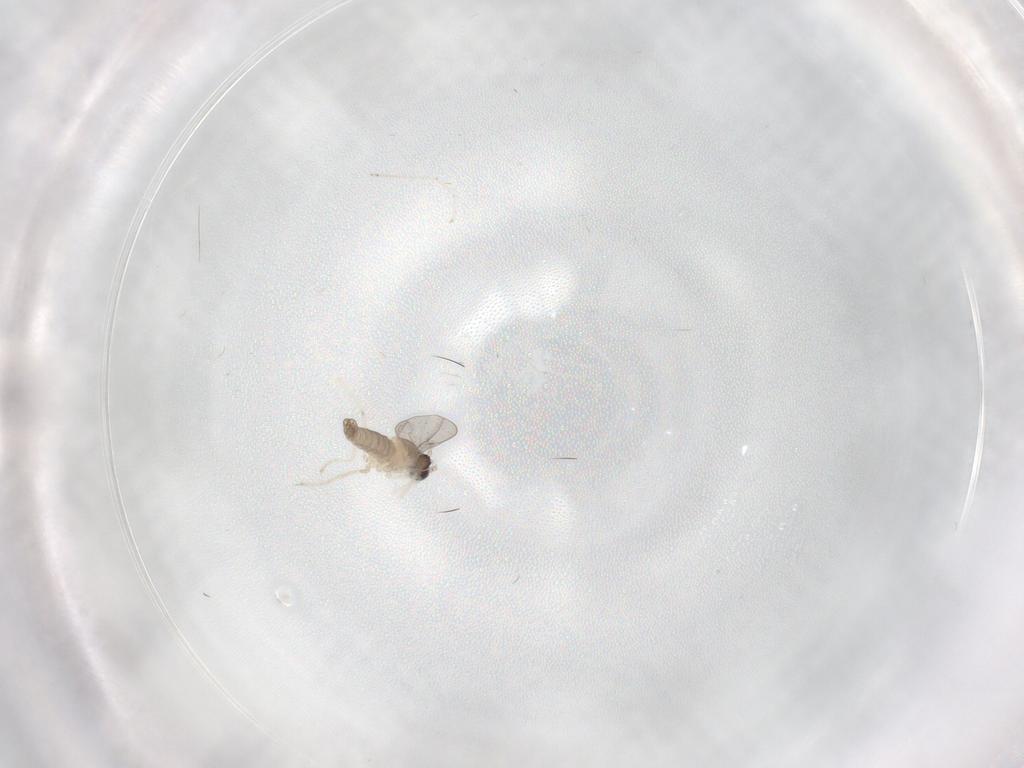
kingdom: Animalia
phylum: Arthropoda
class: Insecta
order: Diptera
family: Cecidomyiidae
